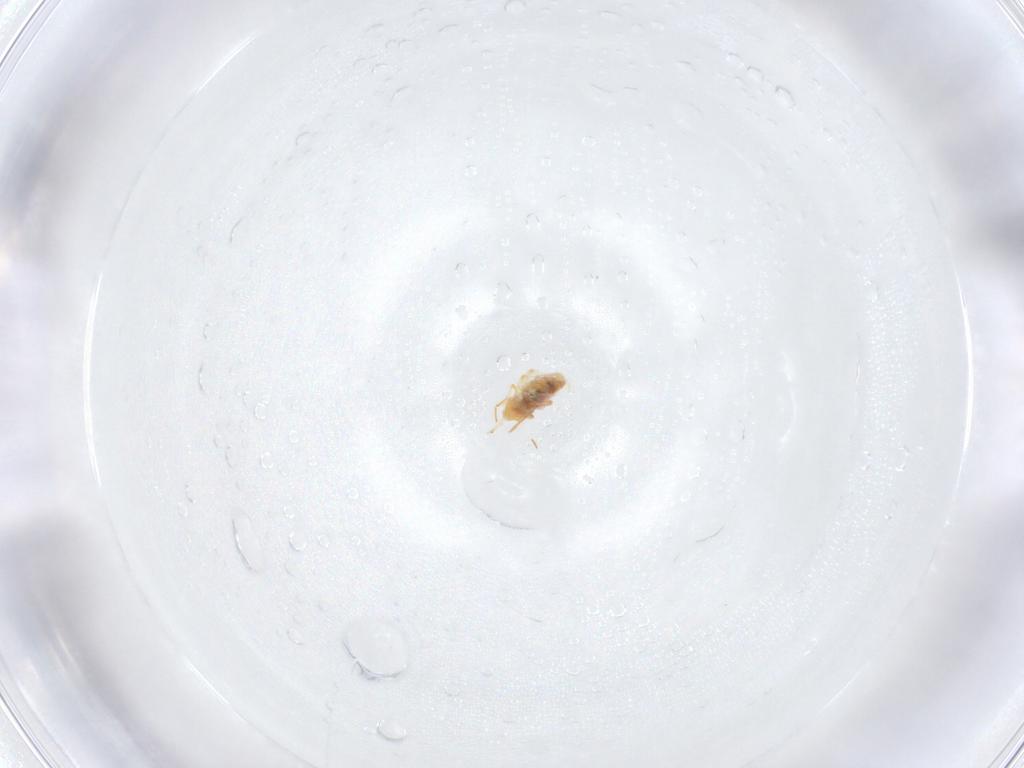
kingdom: Animalia
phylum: Arthropoda
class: Collembola
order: Symphypleona
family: Bourletiellidae
